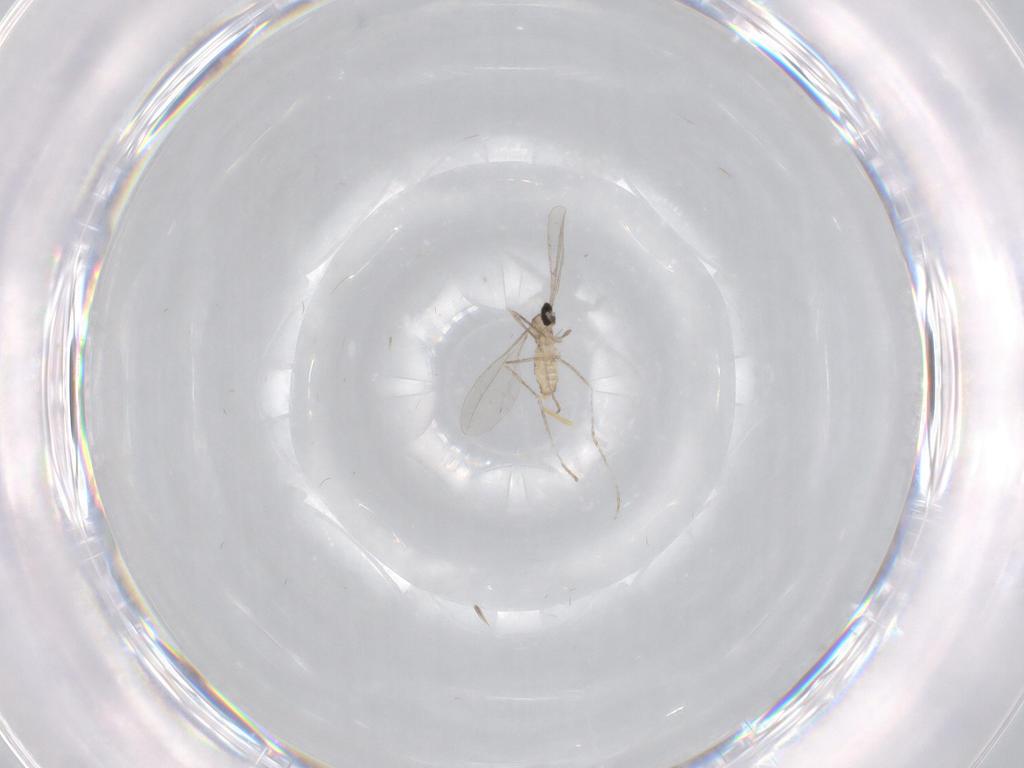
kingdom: Animalia
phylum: Arthropoda
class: Insecta
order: Diptera
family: Cecidomyiidae
